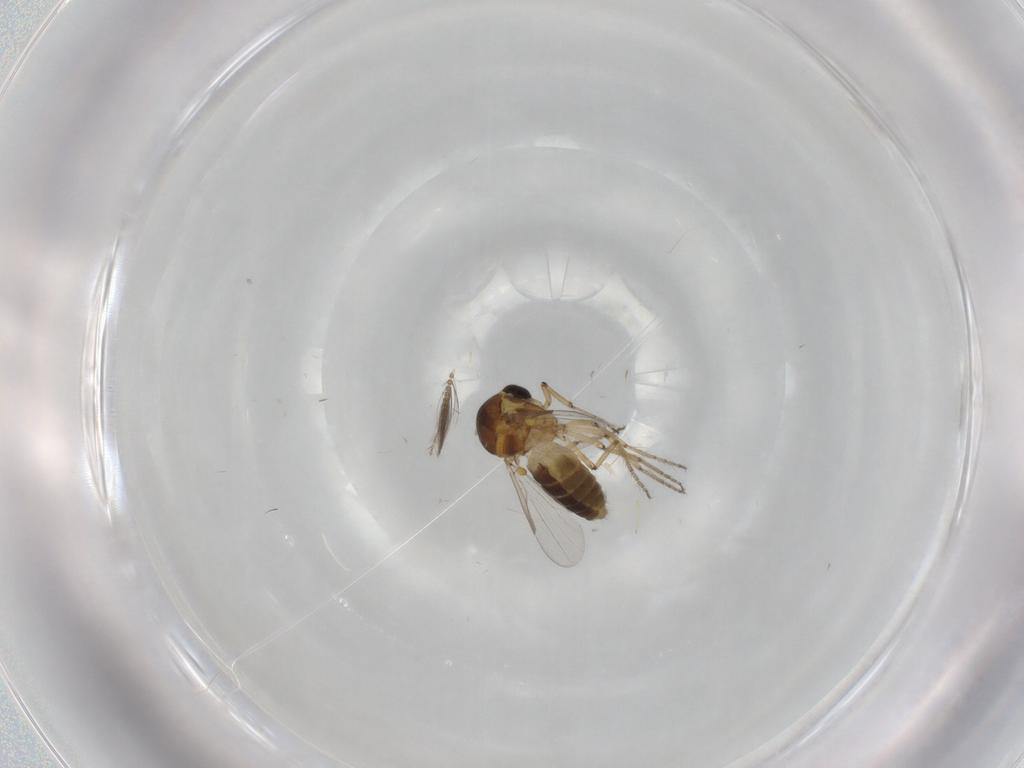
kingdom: Animalia
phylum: Arthropoda
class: Insecta
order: Diptera
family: Ceratopogonidae
